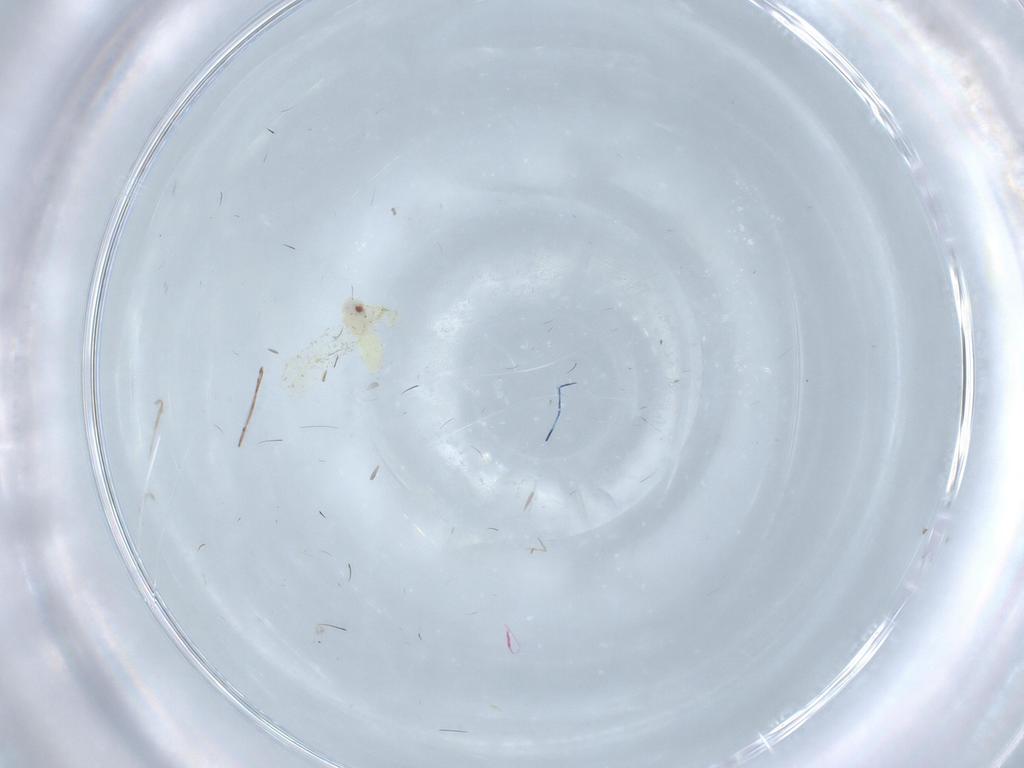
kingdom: Animalia
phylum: Arthropoda
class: Insecta
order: Hemiptera
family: Aleyrodidae
